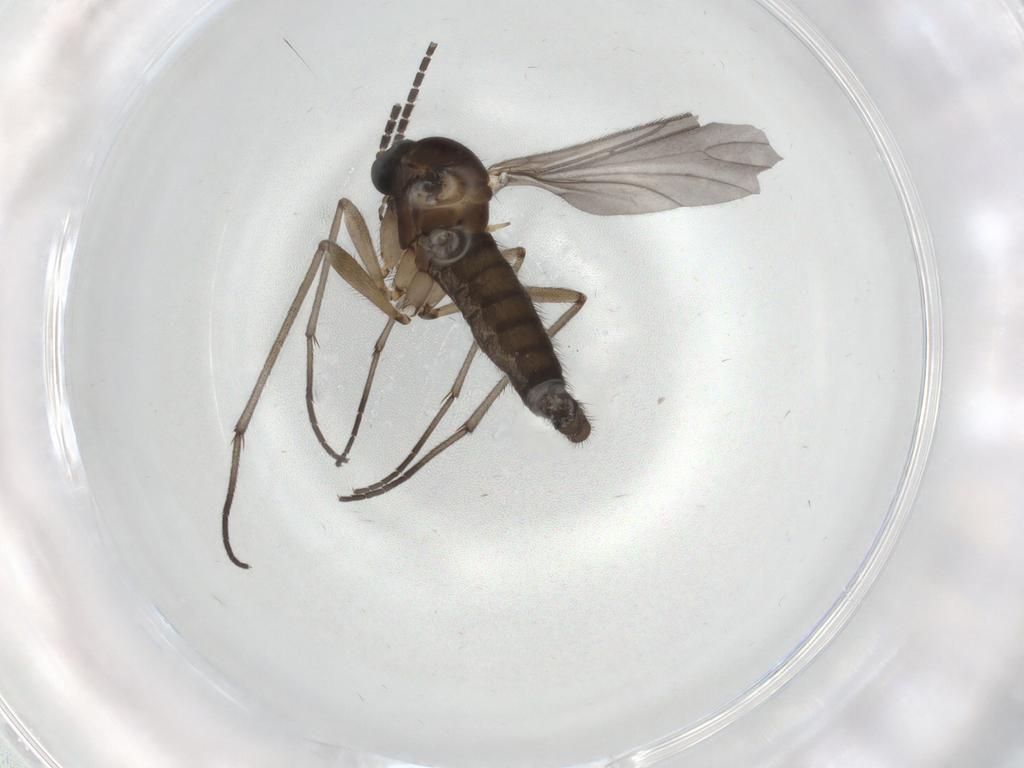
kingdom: Animalia
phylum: Arthropoda
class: Insecta
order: Diptera
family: Sciaridae
